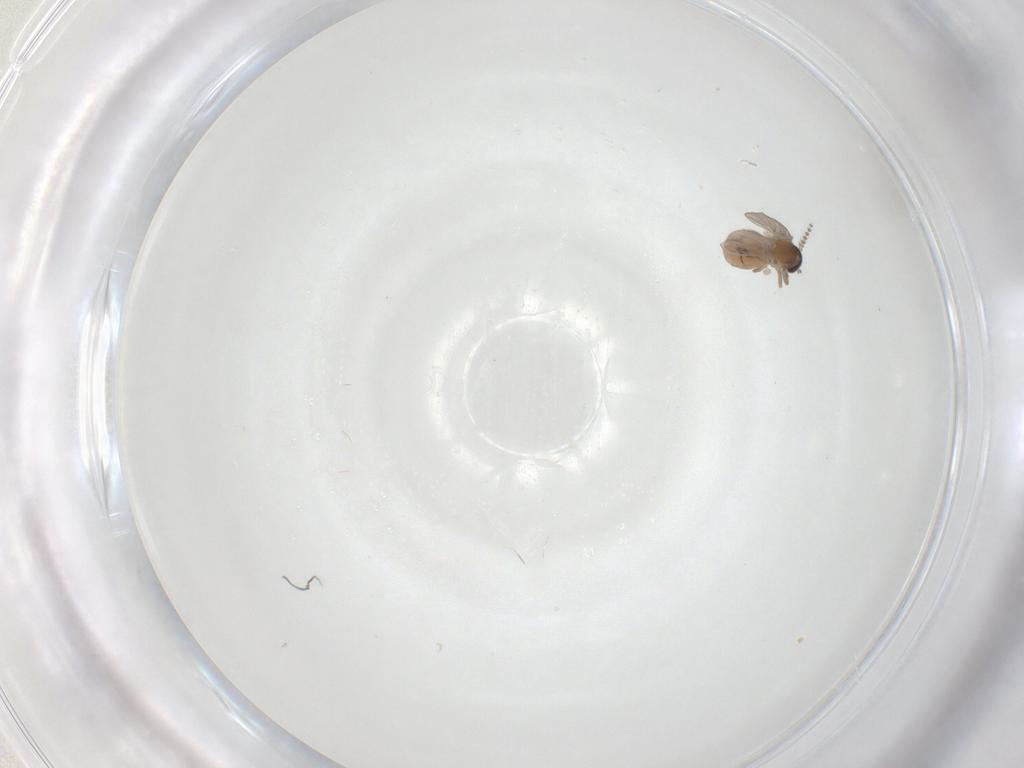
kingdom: Animalia
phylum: Arthropoda
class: Insecta
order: Diptera
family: Psychodidae
